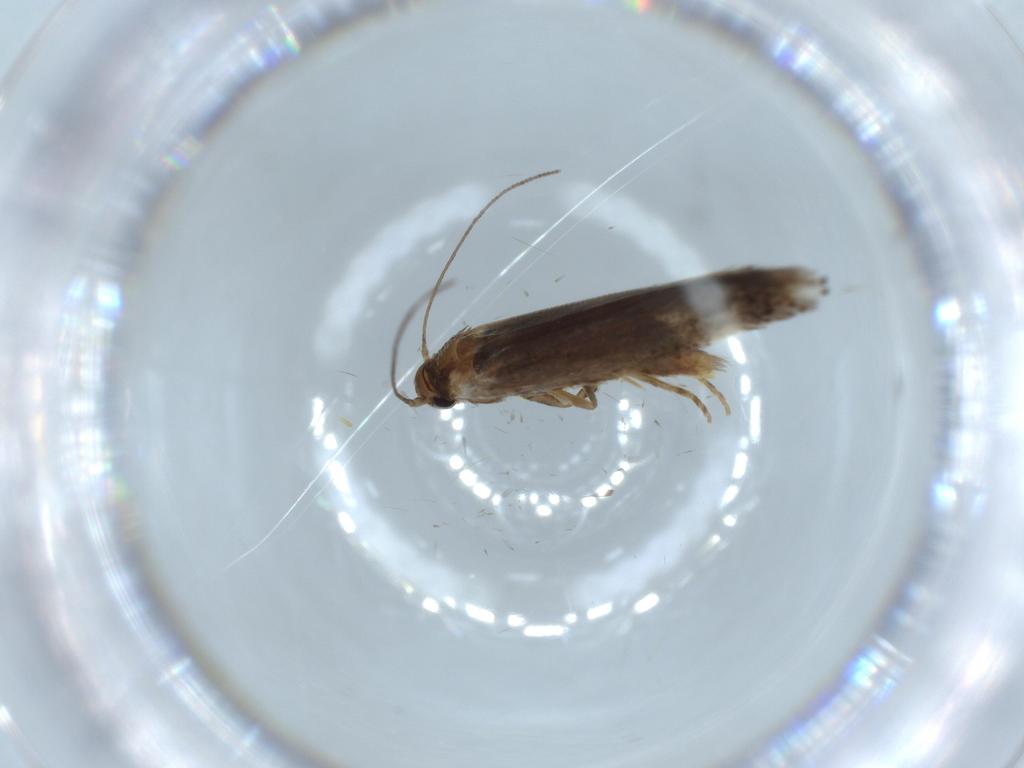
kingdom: Animalia
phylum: Arthropoda
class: Insecta
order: Lepidoptera
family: Elachistidae
